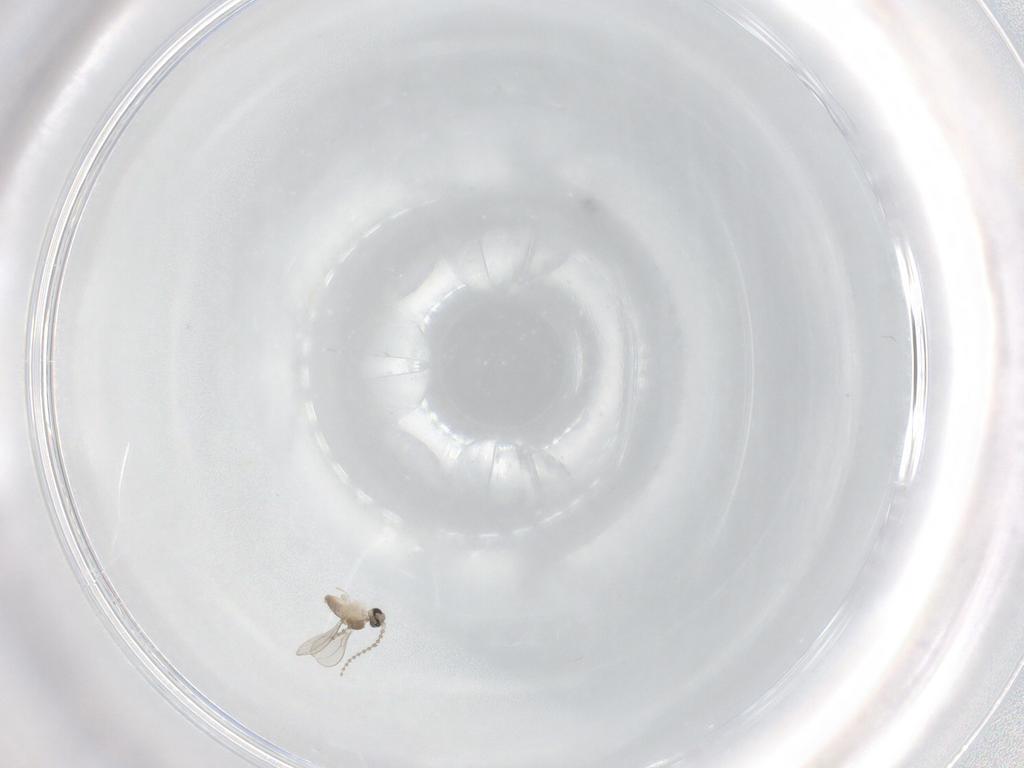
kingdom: Animalia
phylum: Arthropoda
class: Insecta
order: Diptera
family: Cecidomyiidae
